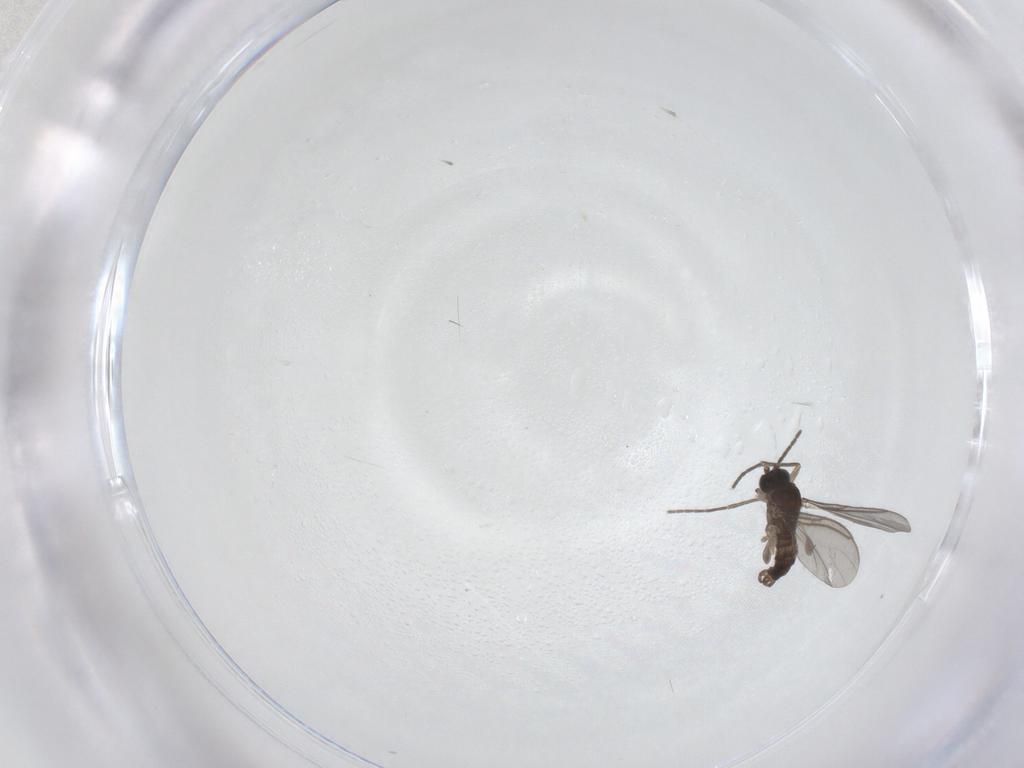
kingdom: Animalia
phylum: Arthropoda
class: Insecta
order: Diptera
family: Sciaridae
